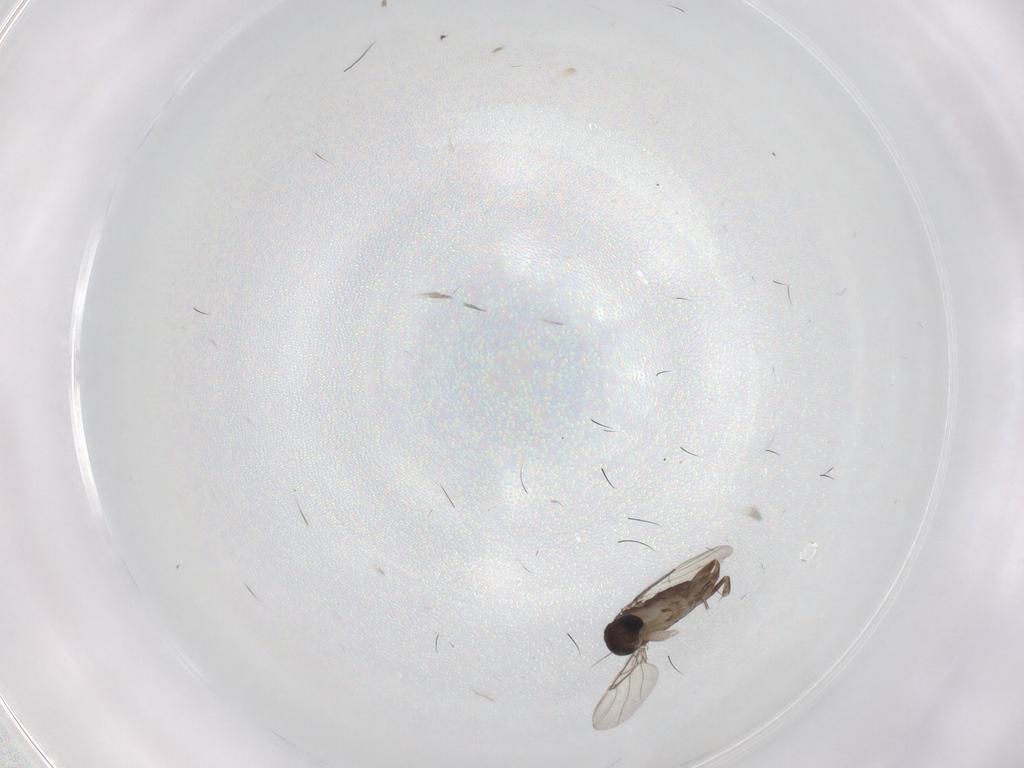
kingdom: Animalia
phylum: Arthropoda
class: Insecta
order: Diptera
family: Phoridae
